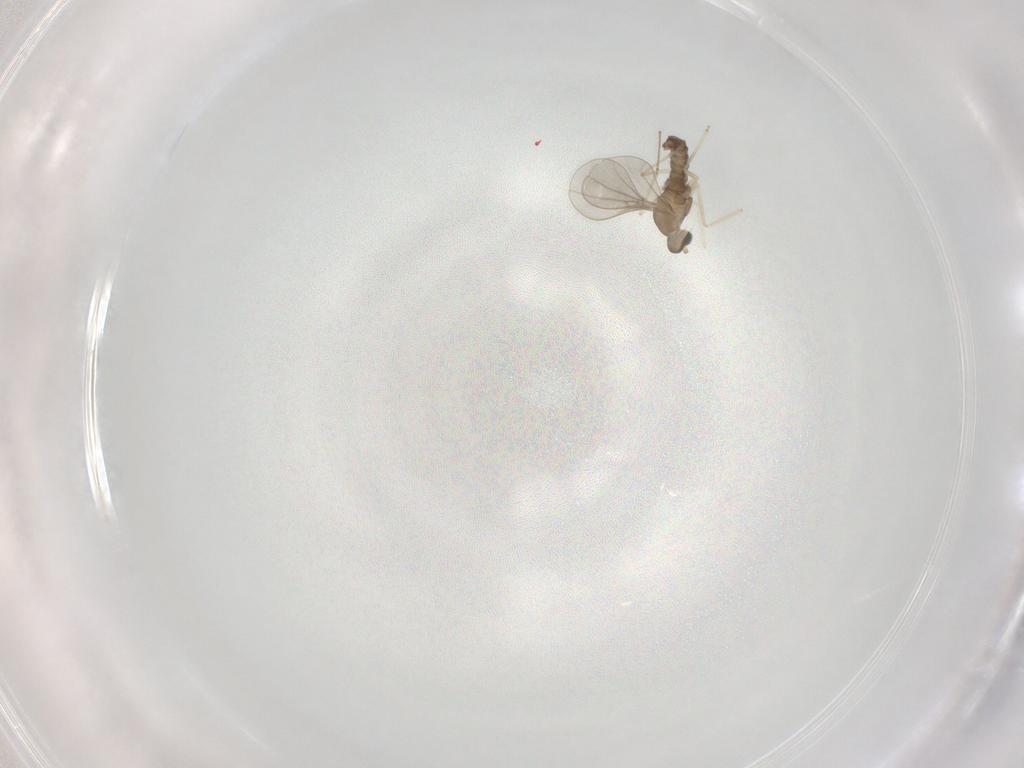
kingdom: Animalia
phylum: Arthropoda
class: Insecta
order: Diptera
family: Cecidomyiidae
